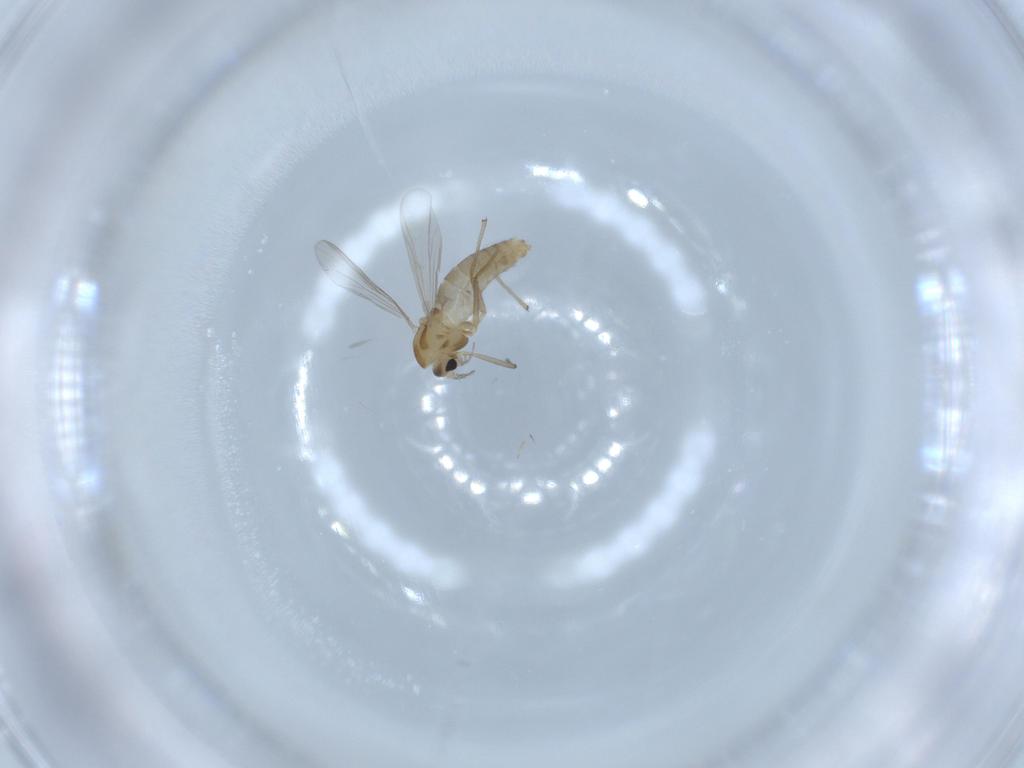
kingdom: Animalia
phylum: Arthropoda
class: Insecta
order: Diptera
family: Chironomidae
